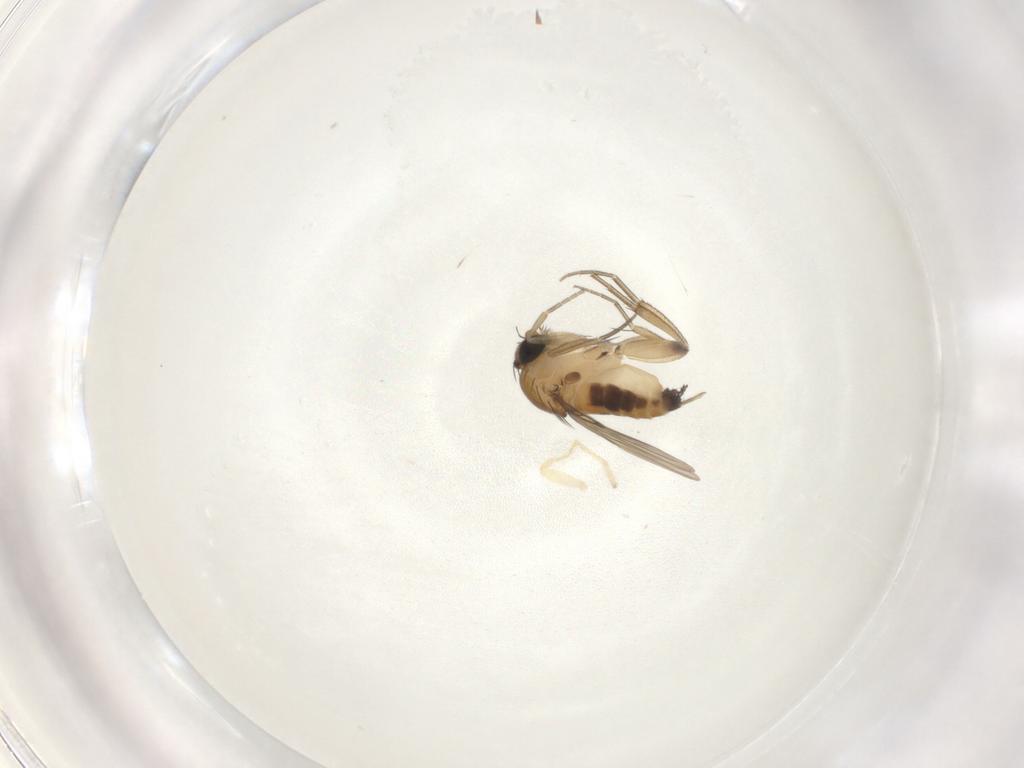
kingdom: Animalia
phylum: Arthropoda
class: Insecta
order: Diptera
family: Phoridae
